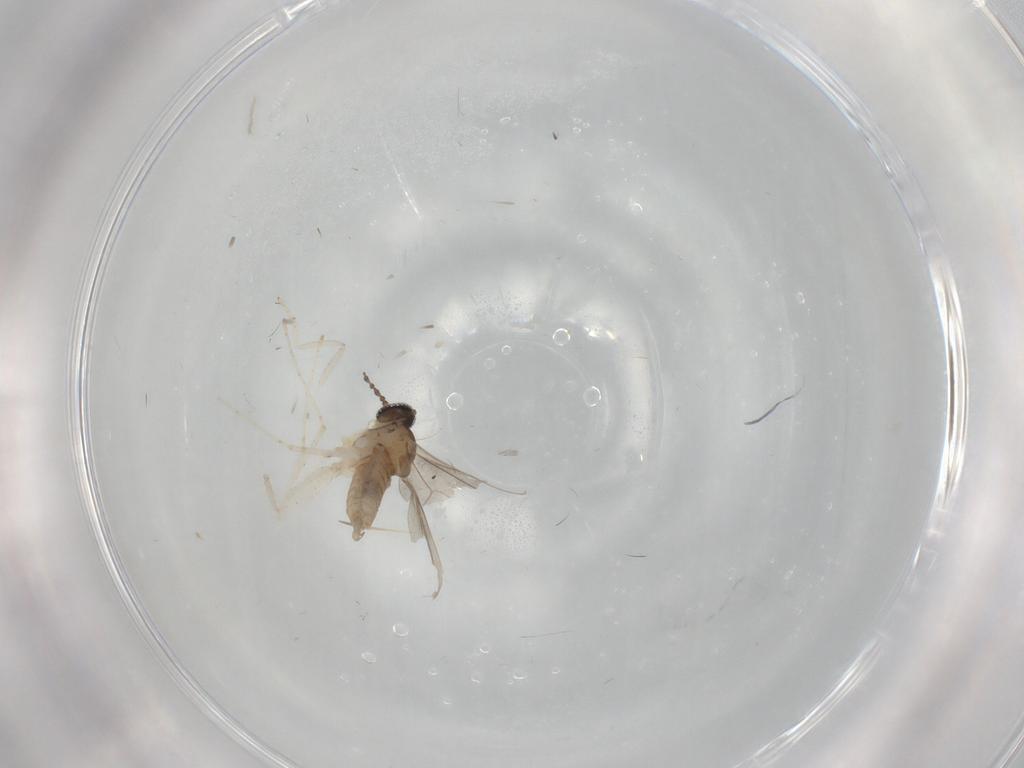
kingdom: Animalia
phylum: Arthropoda
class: Insecta
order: Diptera
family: Cecidomyiidae
